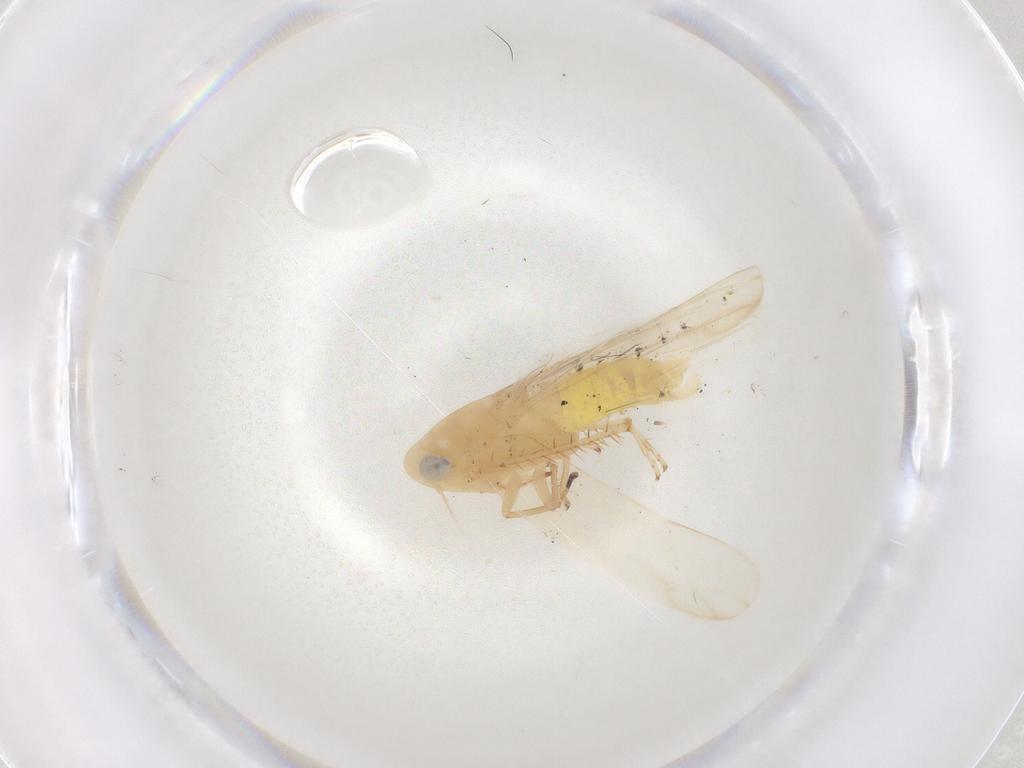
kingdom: Animalia
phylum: Arthropoda
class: Insecta
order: Hemiptera
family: Cicadellidae
